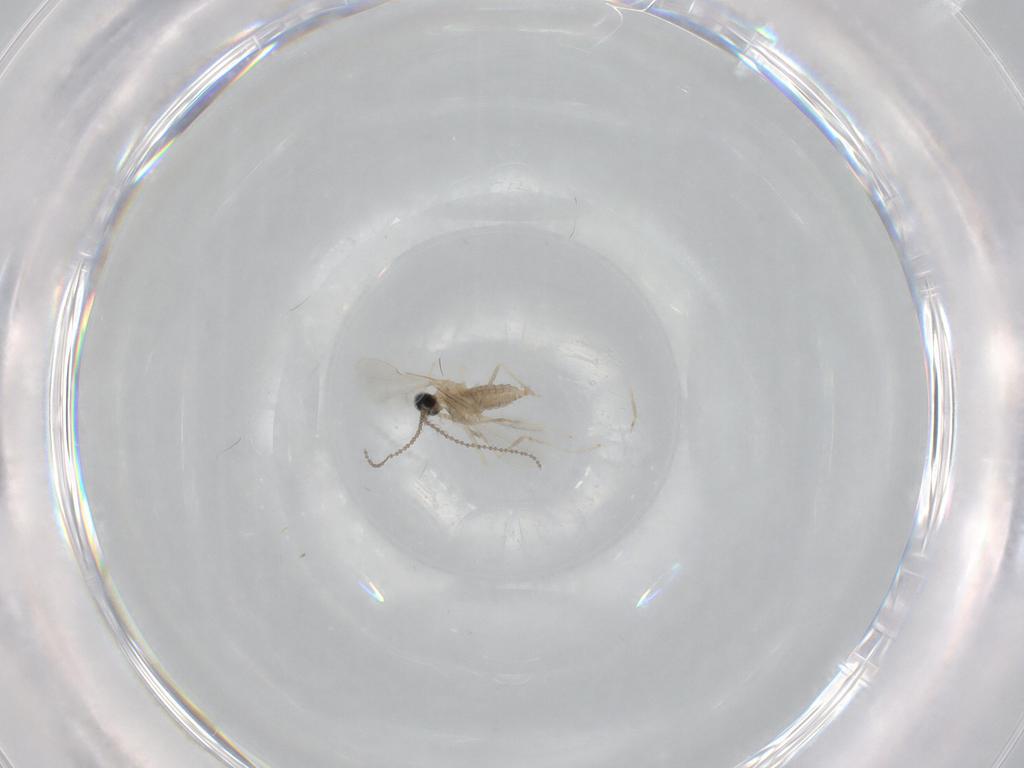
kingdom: Animalia
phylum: Arthropoda
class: Insecta
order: Diptera
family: Cecidomyiidae
